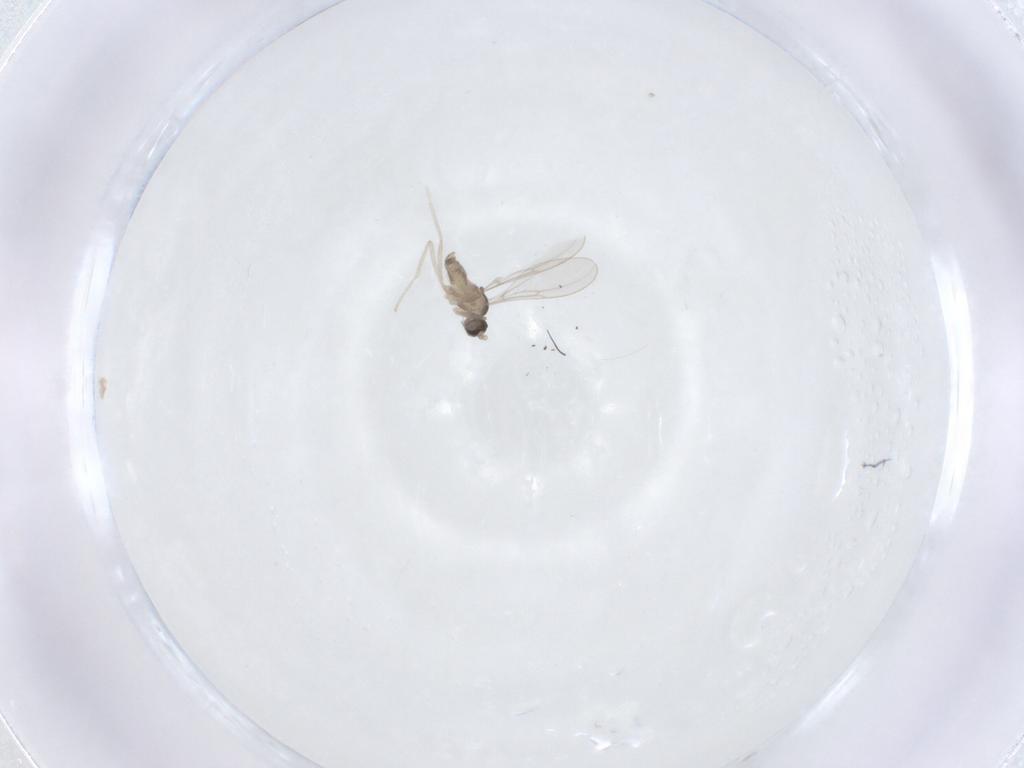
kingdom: Animalia
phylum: Arthropoda
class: Insecta
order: Diptera
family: Cecidomyiidae
